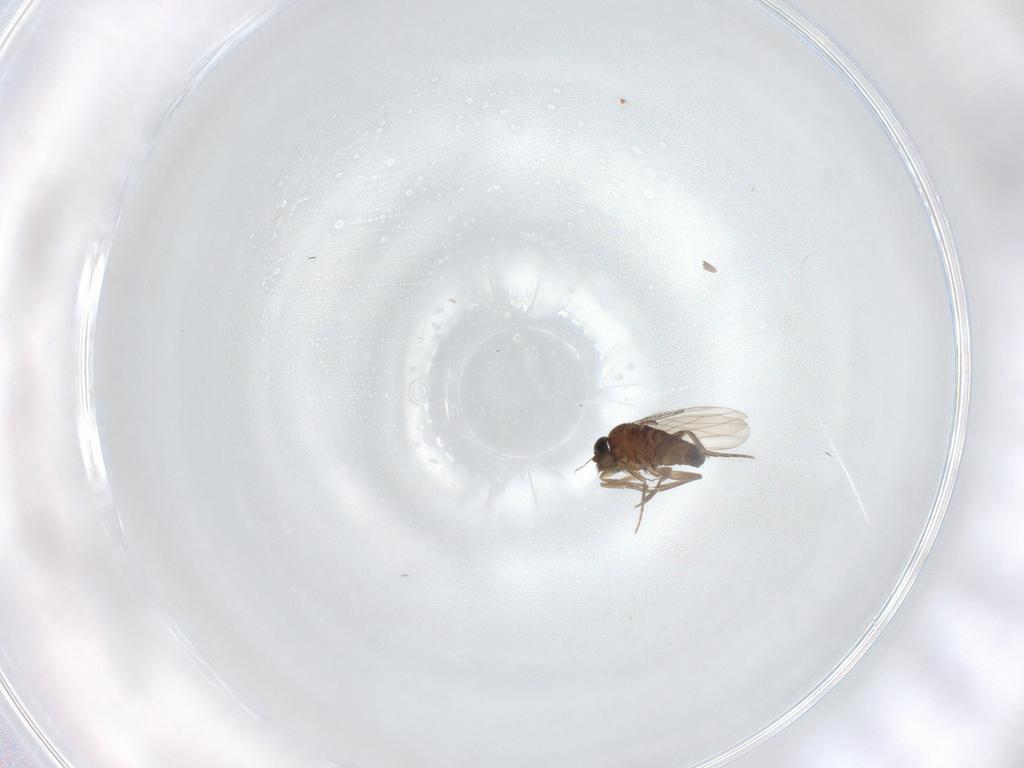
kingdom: Animalia
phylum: Arthropoda
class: Insecta
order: Diptera
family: Phoridae
